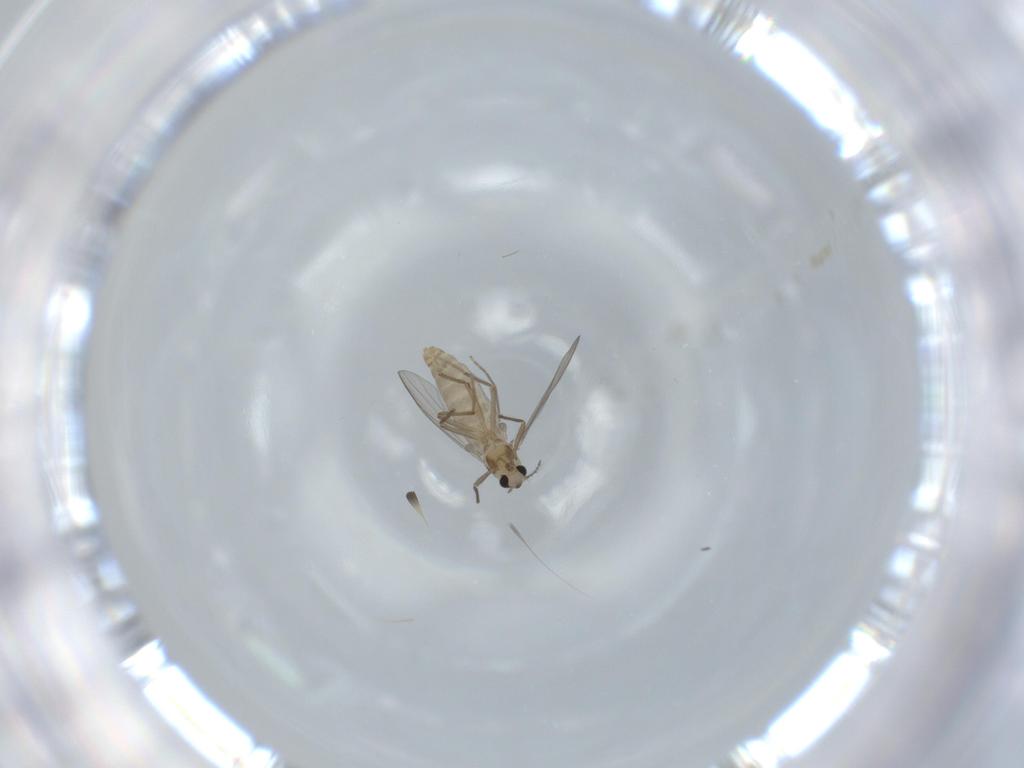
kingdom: Animalia
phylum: Arthropoda
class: Insecta
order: Diptera
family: Chironomidae
